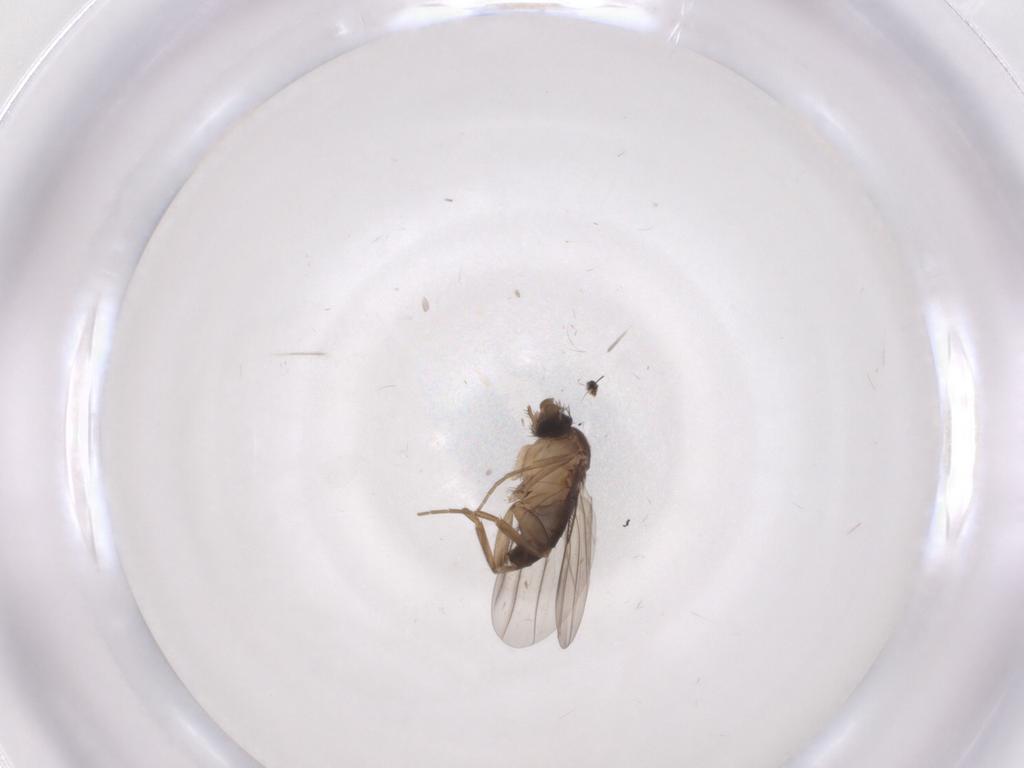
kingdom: Animalia
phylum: Arthropoda
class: Insecta
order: Diptera
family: Phoridae
